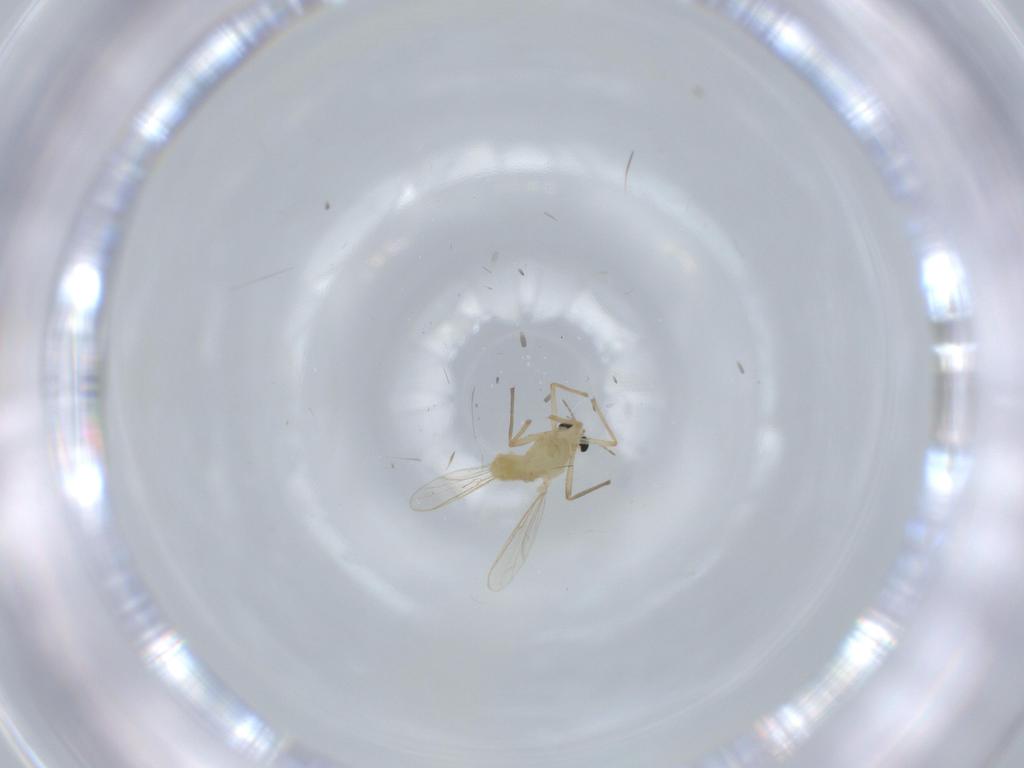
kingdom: Animalia
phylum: Arthropoda
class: Insecta
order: Diptera
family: Chironomidae
